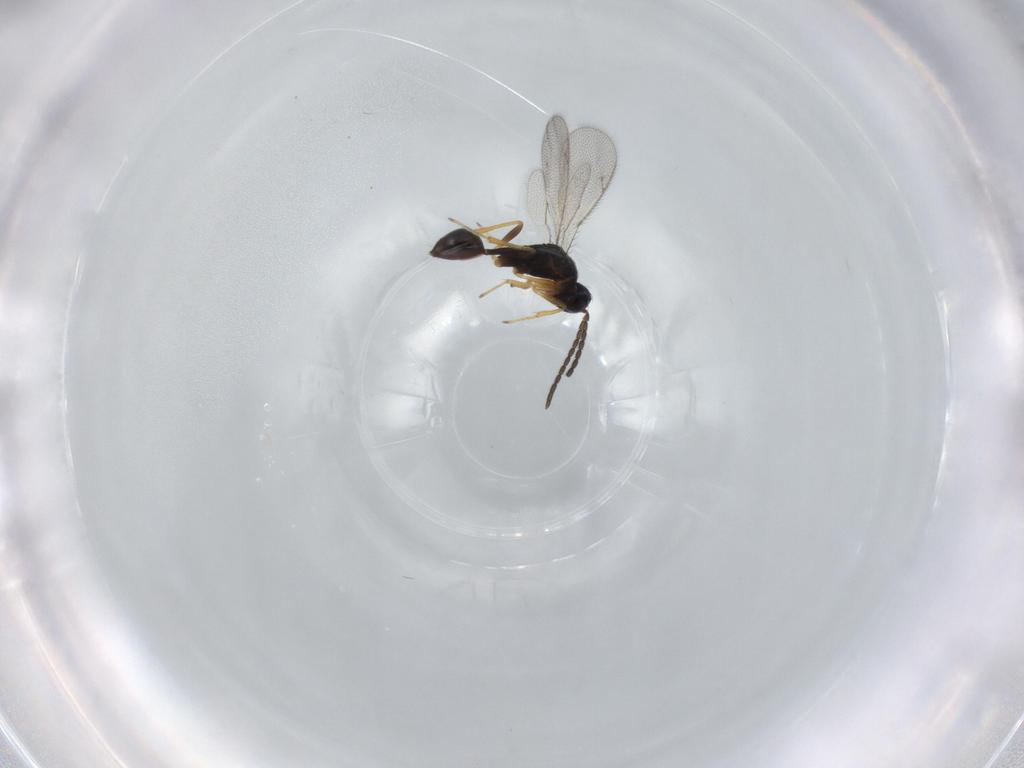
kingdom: Animalia
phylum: Arthropoda
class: Insecta
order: Hymenoptera
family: Diparidae
